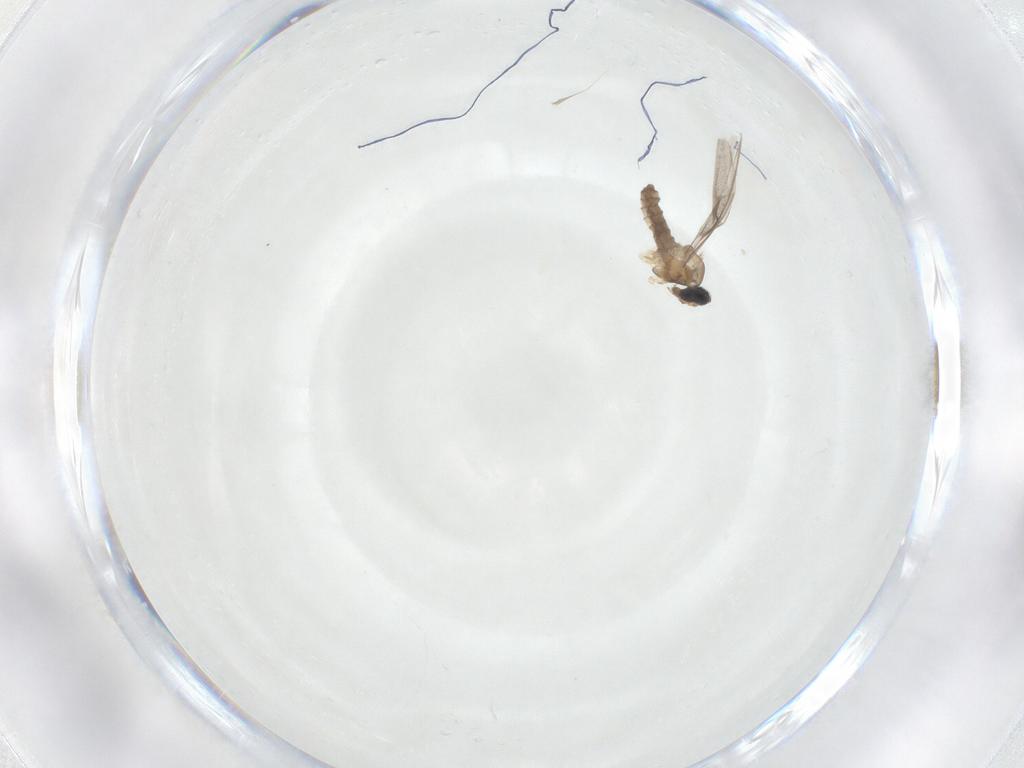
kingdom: Animalia
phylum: Arthropoda
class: Insecta
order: Diptera
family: Cecidomyiidae
